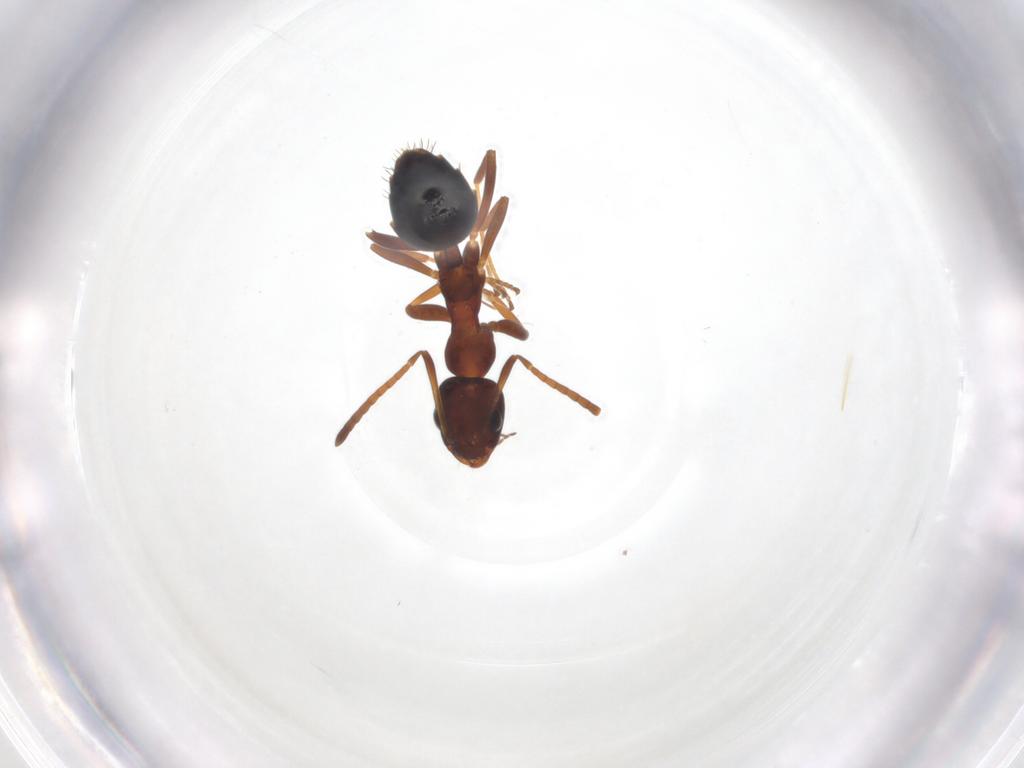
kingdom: Animalia
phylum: Arthropoda
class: Insecta
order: Hymenoptera
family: Formicidae
